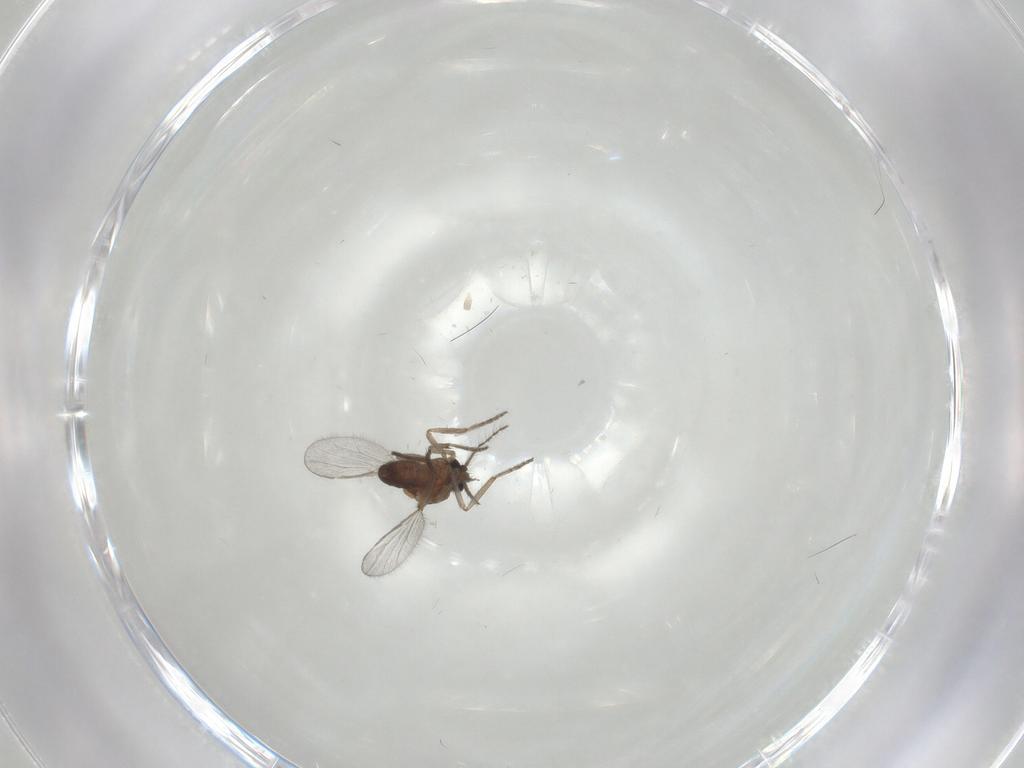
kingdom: Animalia
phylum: Arthropoda
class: Insecta
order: Diptera
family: Ceratopogonidae
